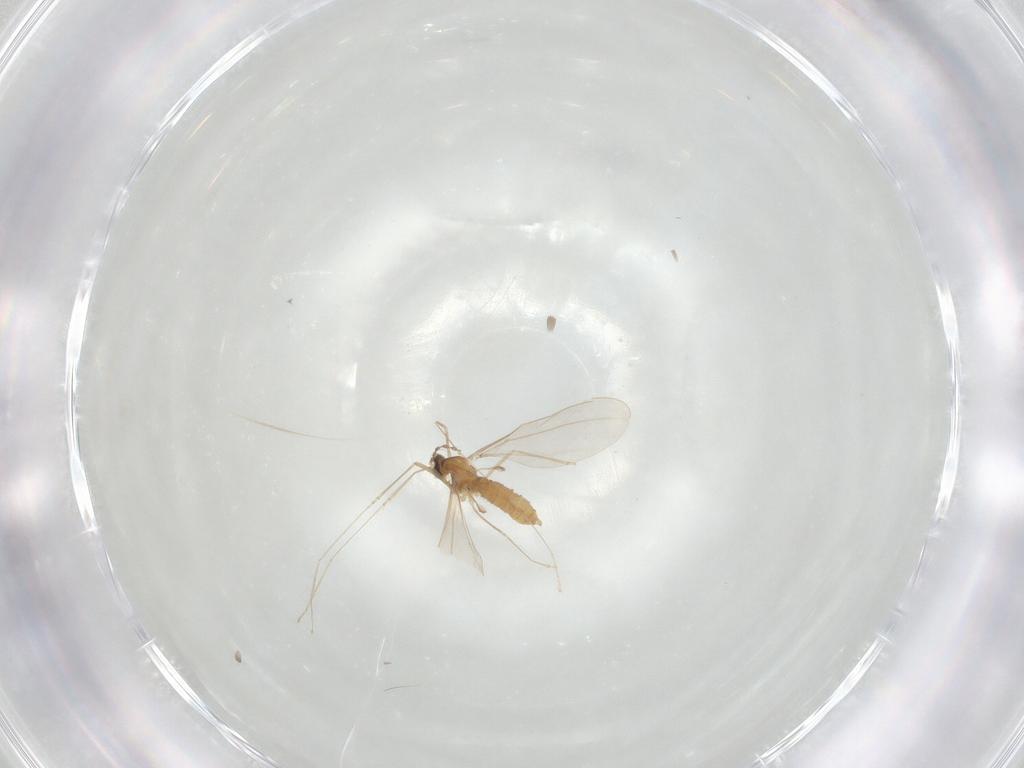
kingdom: Animalia
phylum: Arthropoda
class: Insecta
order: Diptera
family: Cecidomyiidae
